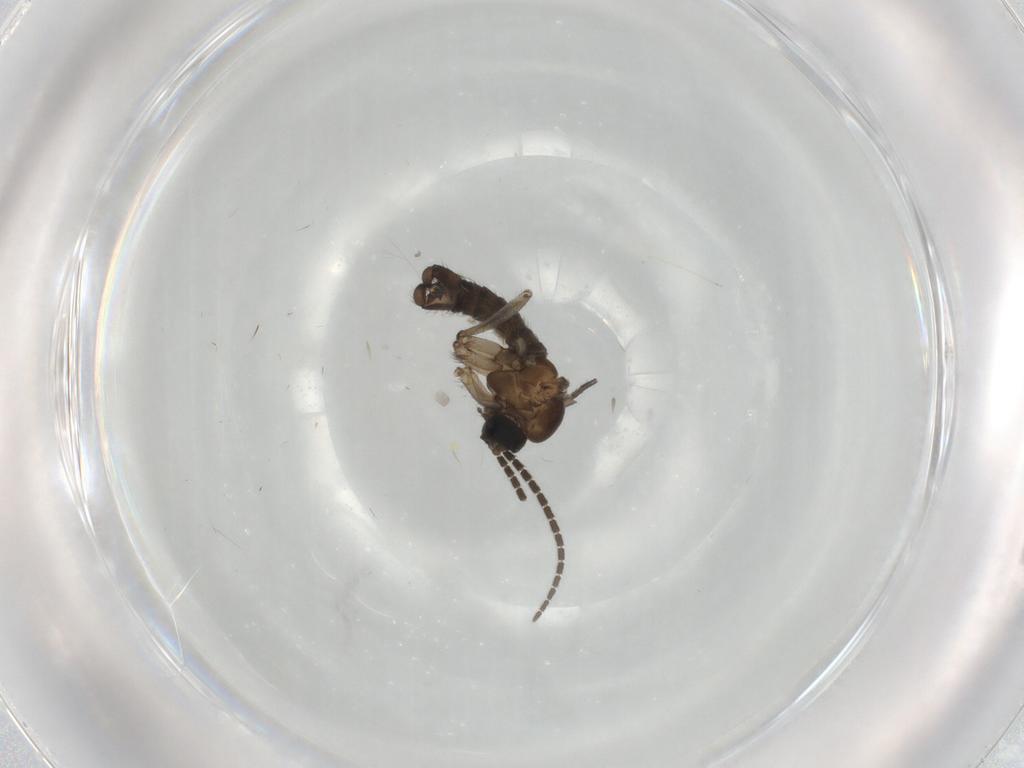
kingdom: Animalia
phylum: Arthropoda
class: Insecta
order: Diptera
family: Sciaridae
